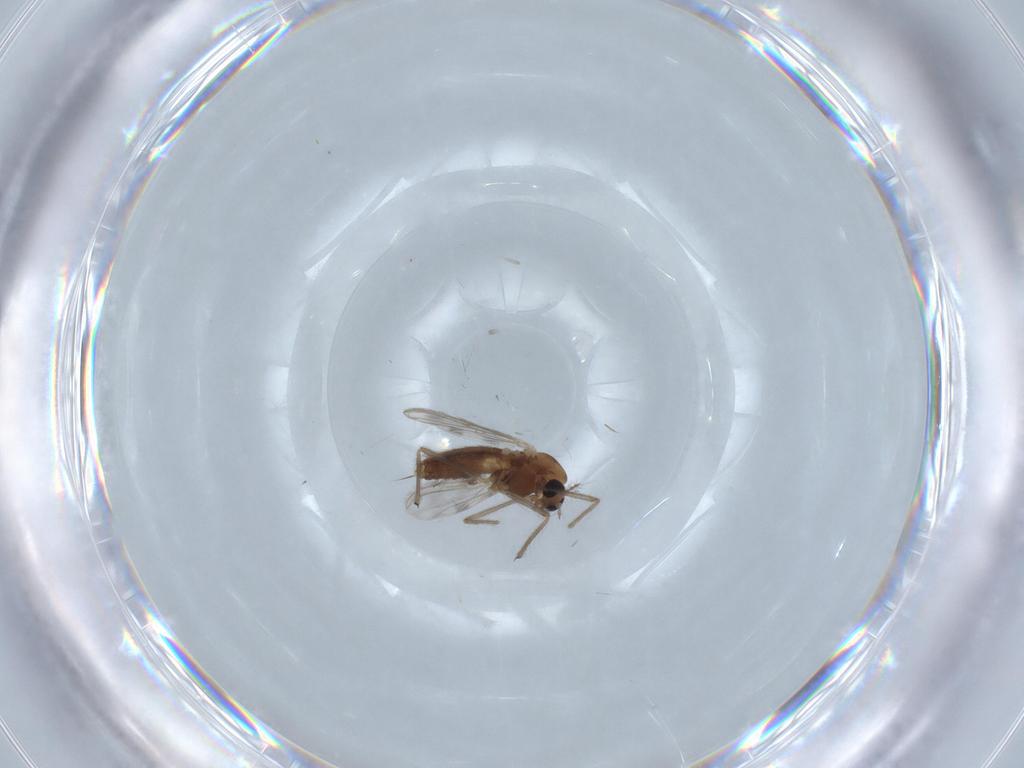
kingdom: Animalia
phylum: Arthropoda
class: Insecta
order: Diptera
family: Chironomidae
